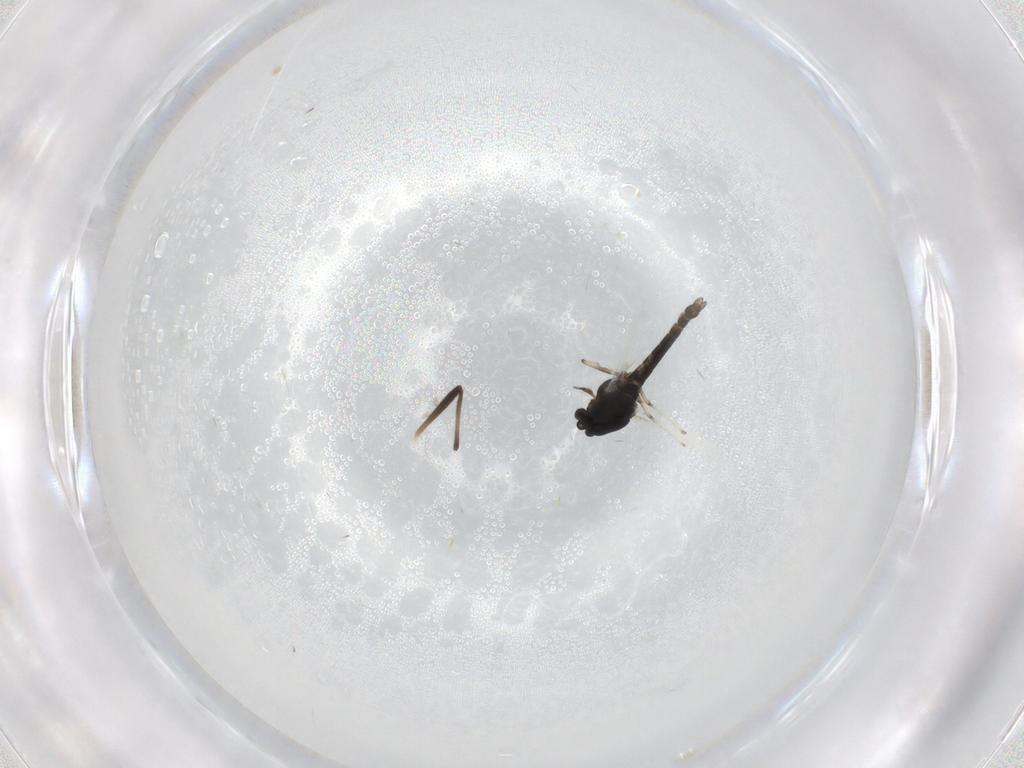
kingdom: Animalia
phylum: Arthropoda
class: Insecta
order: Diptera
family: Chironomidae
